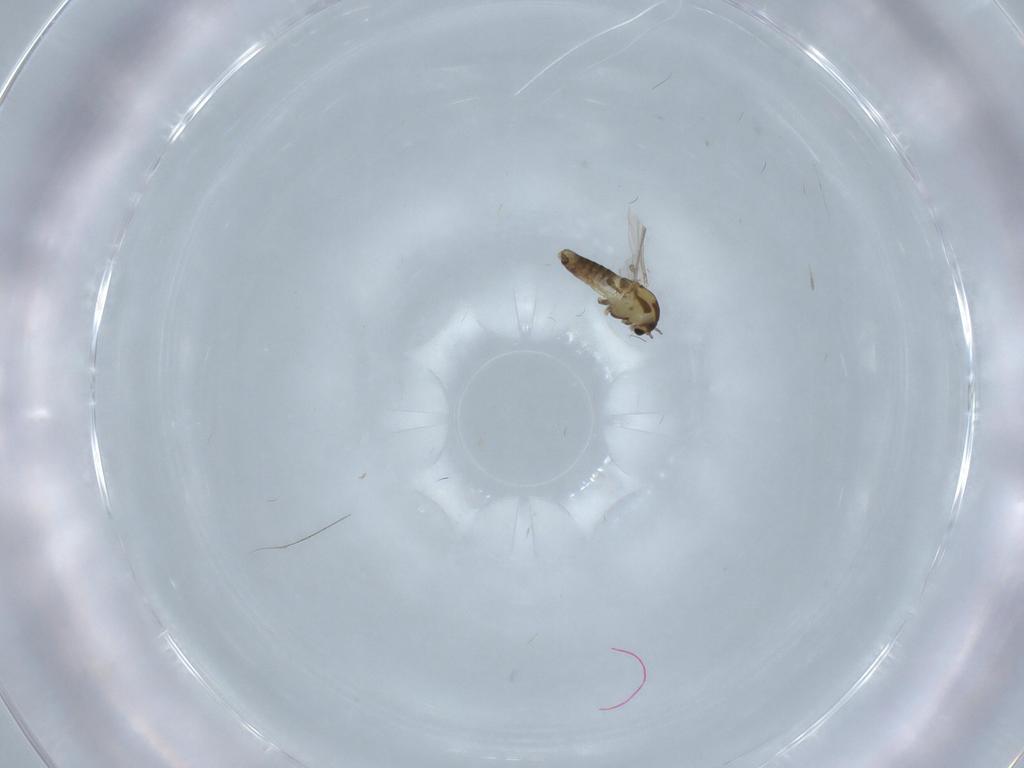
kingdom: Animalia
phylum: Arthropoda
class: Insecta
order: Diptera
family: Chironomidae
